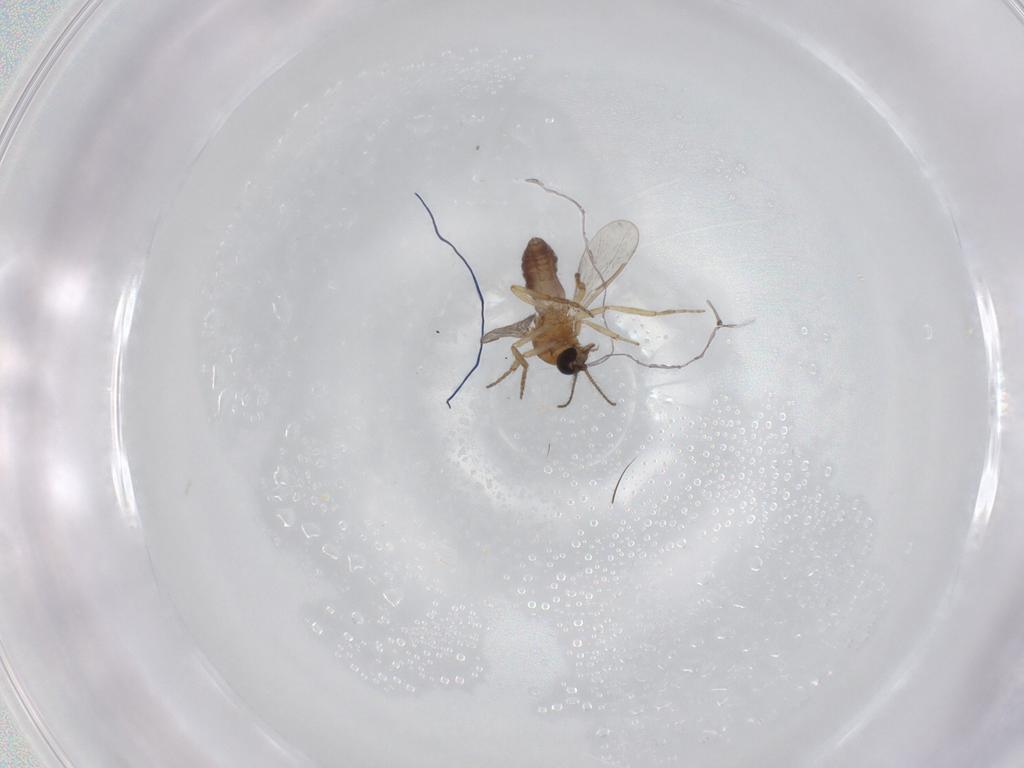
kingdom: Animalia
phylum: Arthropoda
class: Insecta
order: Diptera
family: Ceratopogonidae
